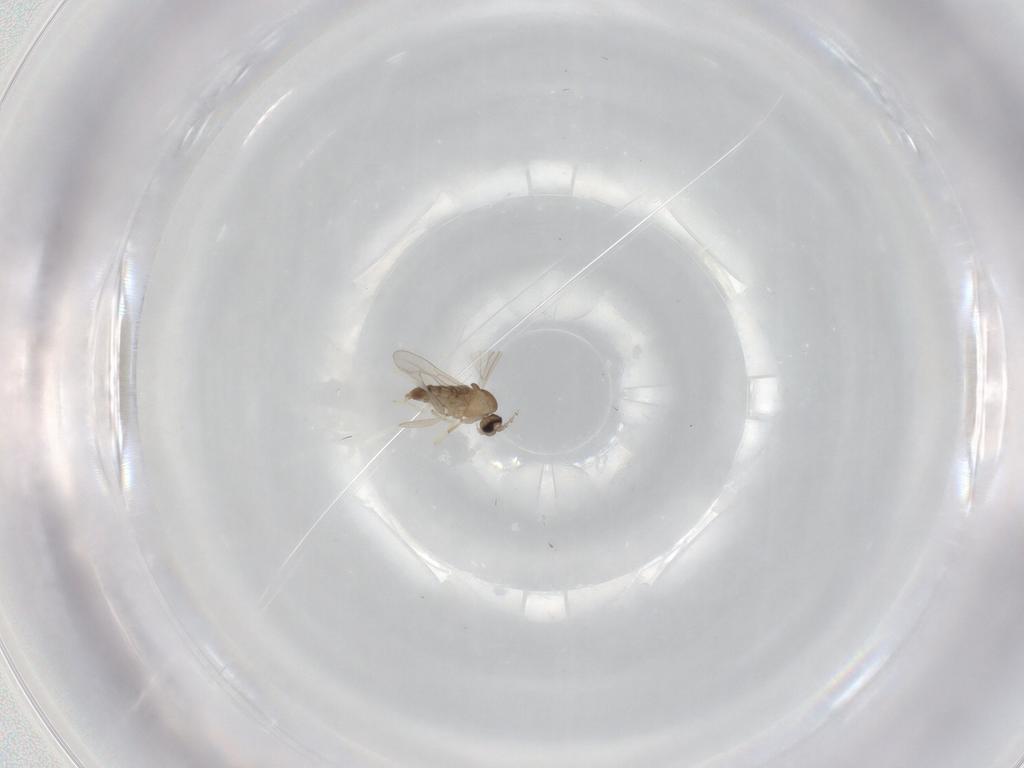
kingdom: Animalia
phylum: Arthropoda
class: Insecta
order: Diptera
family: Cecidomyiidae
